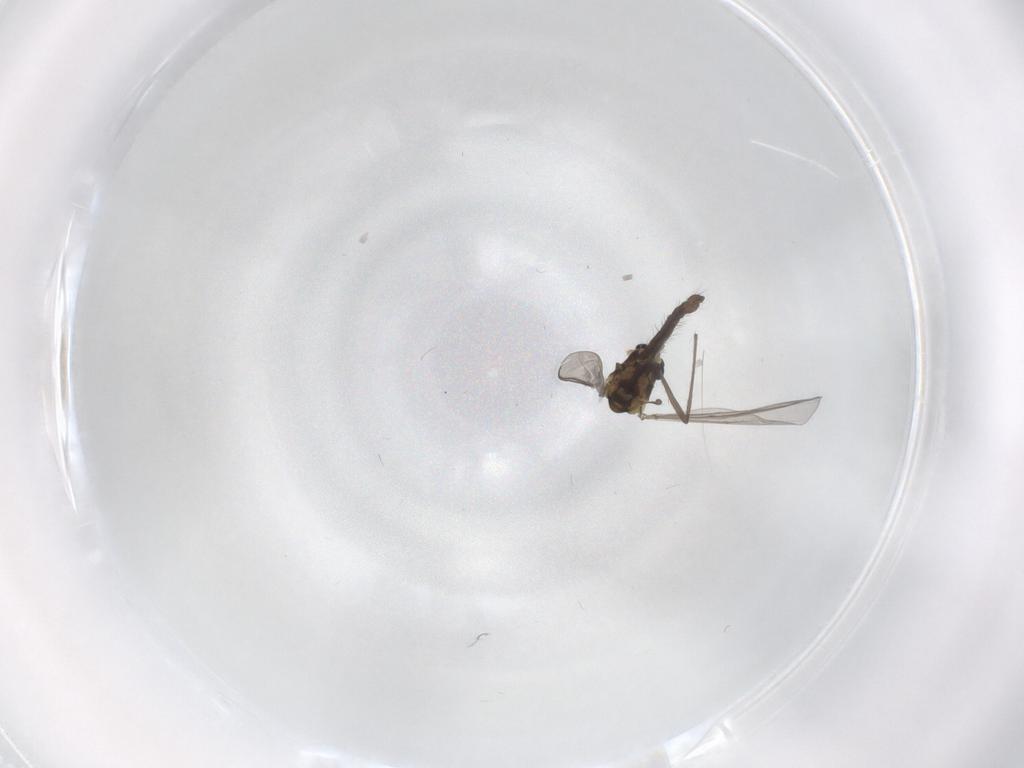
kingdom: Animalia
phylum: Arthropoda
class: Insecta
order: Diptera
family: Chironomidae
